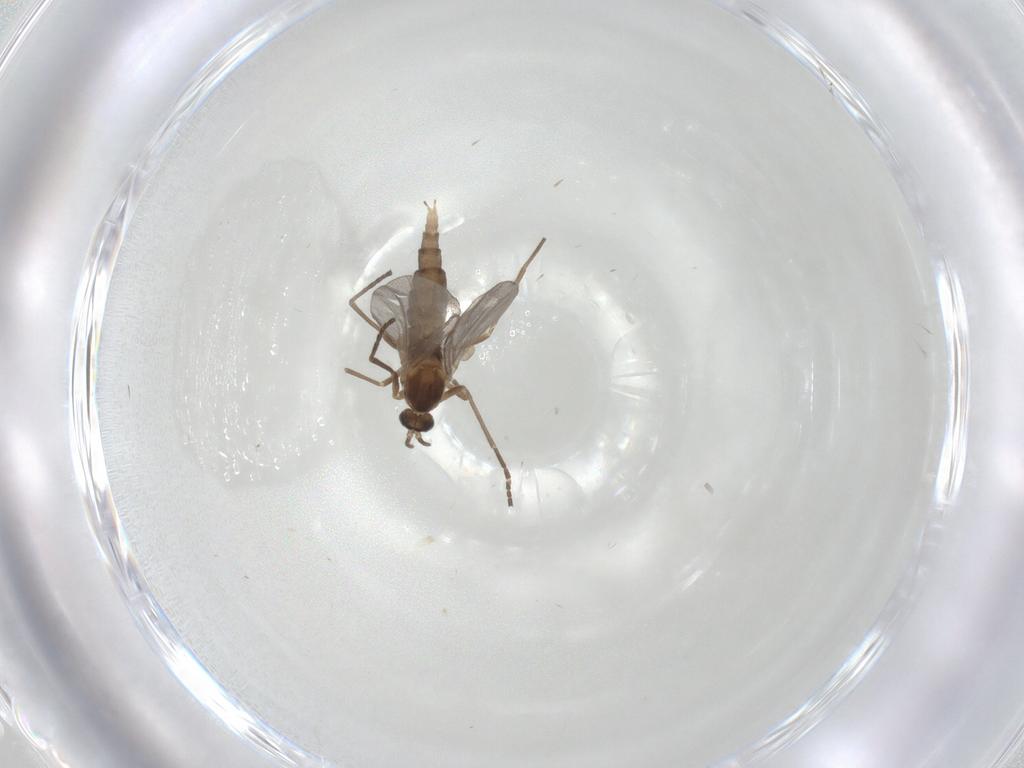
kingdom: Animalia
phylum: Arthropoda
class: Insecta
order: Diptera
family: Cecidomyiidae
